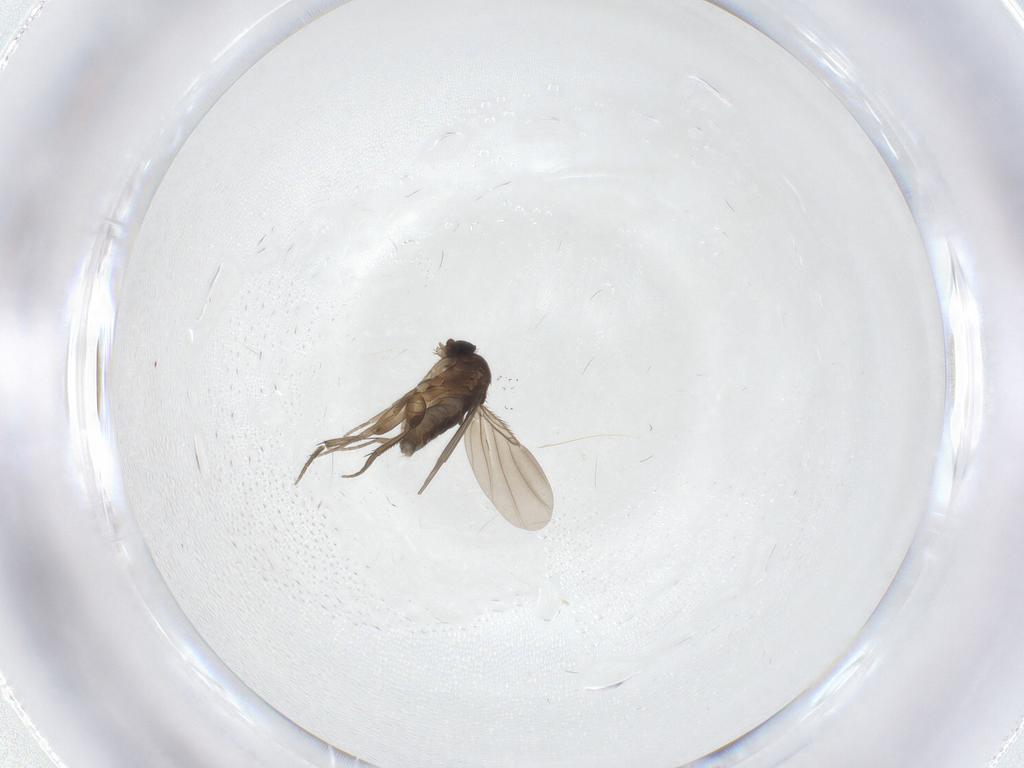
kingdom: Animalia
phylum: Arthropoda
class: Insecta
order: Diptera
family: Phoridae
